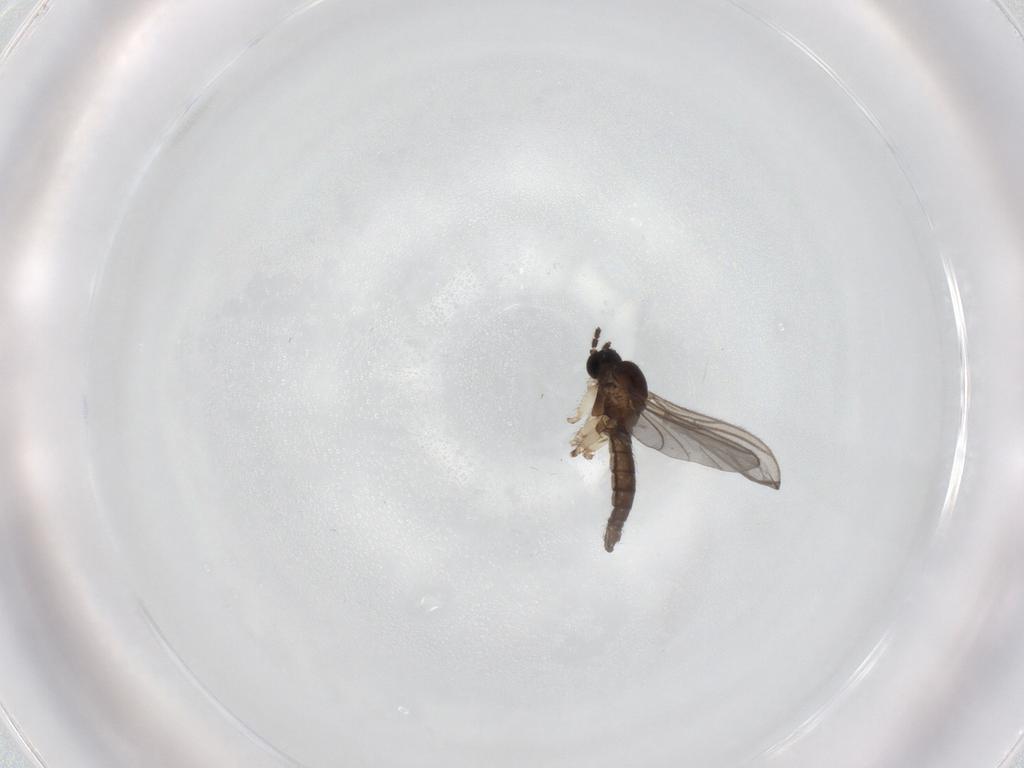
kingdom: Animalia
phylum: Arthropoda
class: Insecta
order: Diptera
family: Sciaridae
